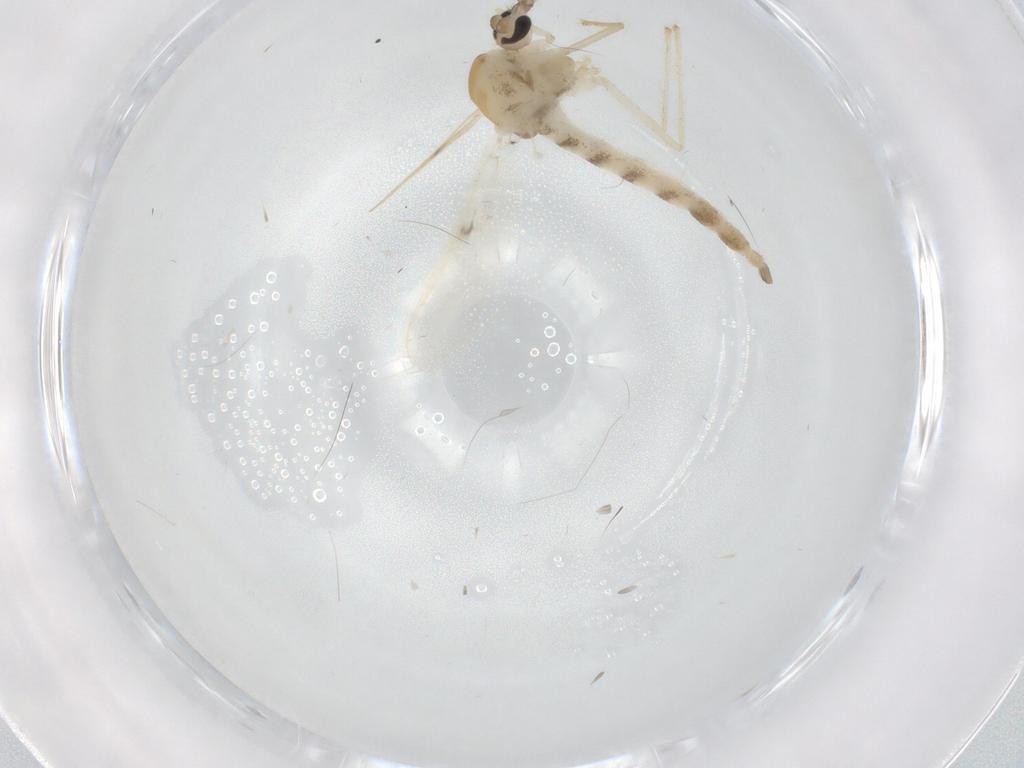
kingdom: Animalia
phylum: Arthropoda
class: Insecta
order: Diptera
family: Chironomidae
